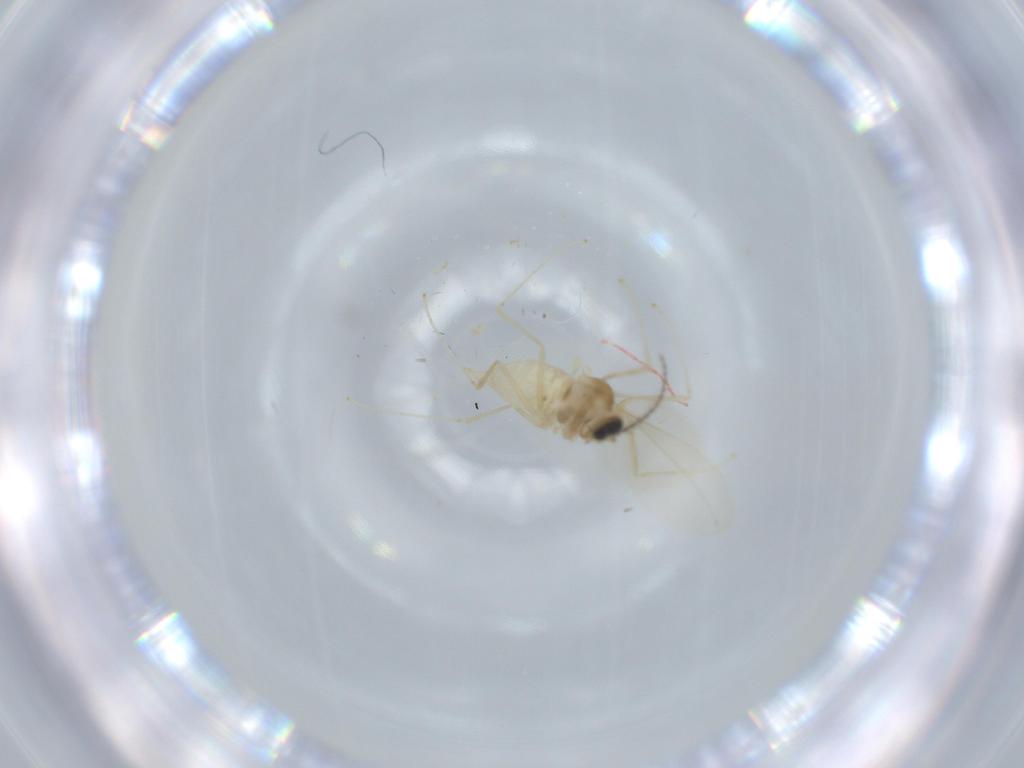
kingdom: Animalia
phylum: Arthropoda
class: Insecta
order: Diptera
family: Cecidomyiidae
